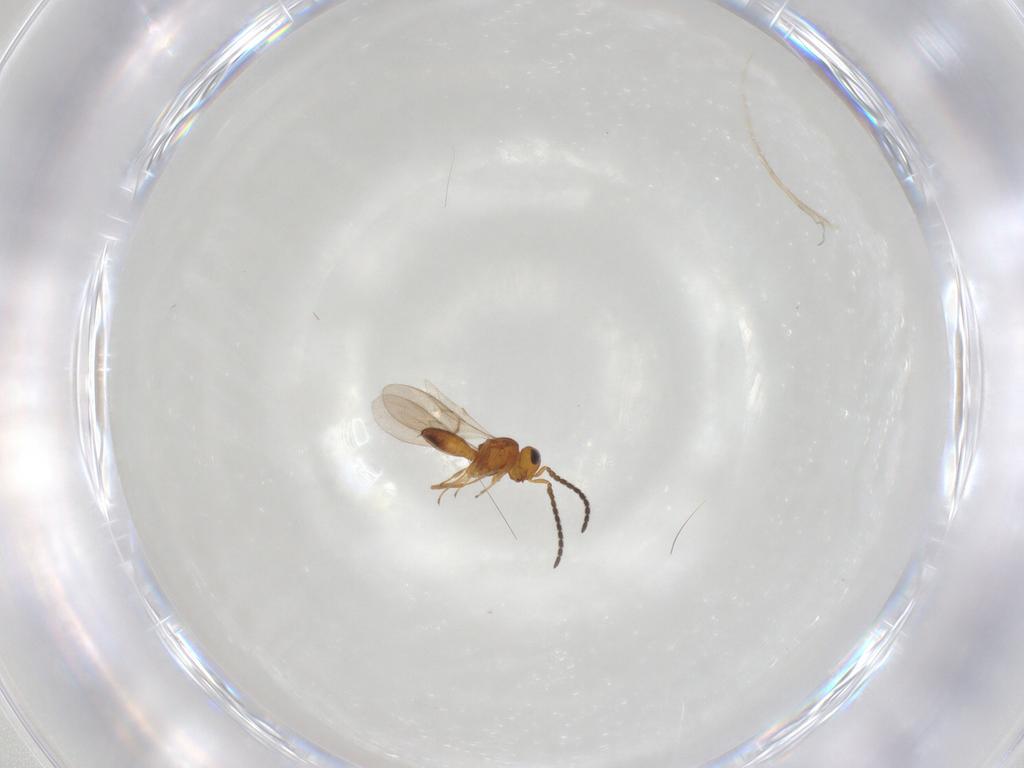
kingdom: Animalia
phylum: Arthropoda
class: Insecta
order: Hymenoptera
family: Scelionidae
